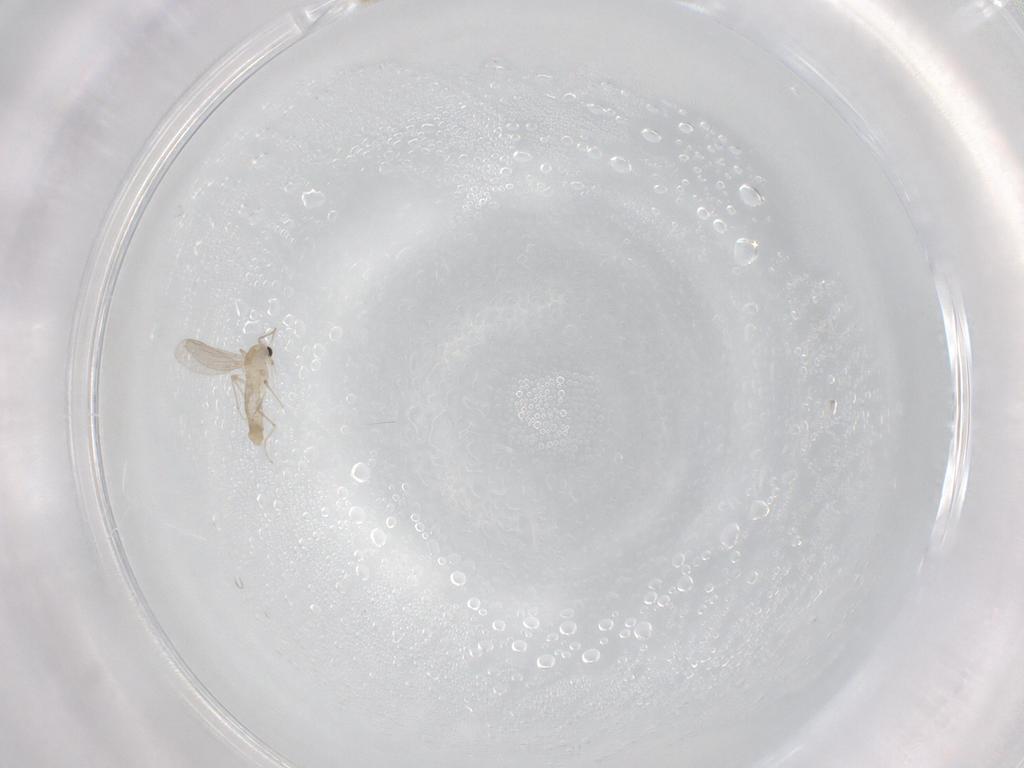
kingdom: Animalia
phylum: Arthropoda
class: Insecta
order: Diptera
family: Chironomidae
